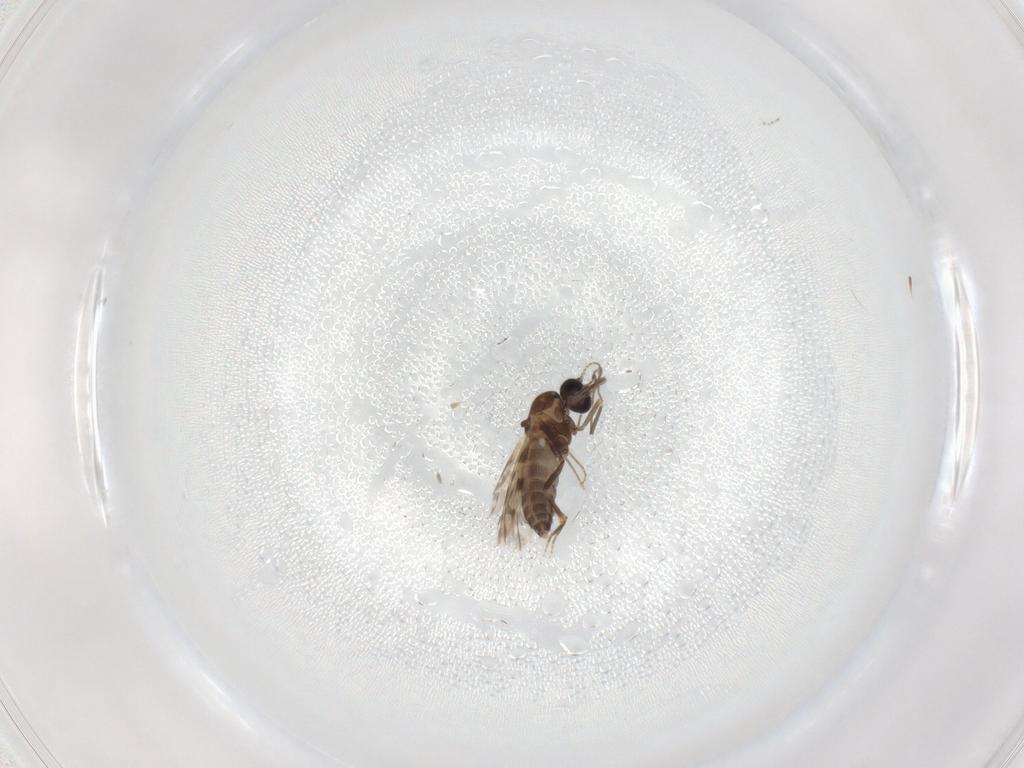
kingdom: Animalia
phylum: Arthropoda
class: Insecta
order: Diptera
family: Ceratopogonidae
